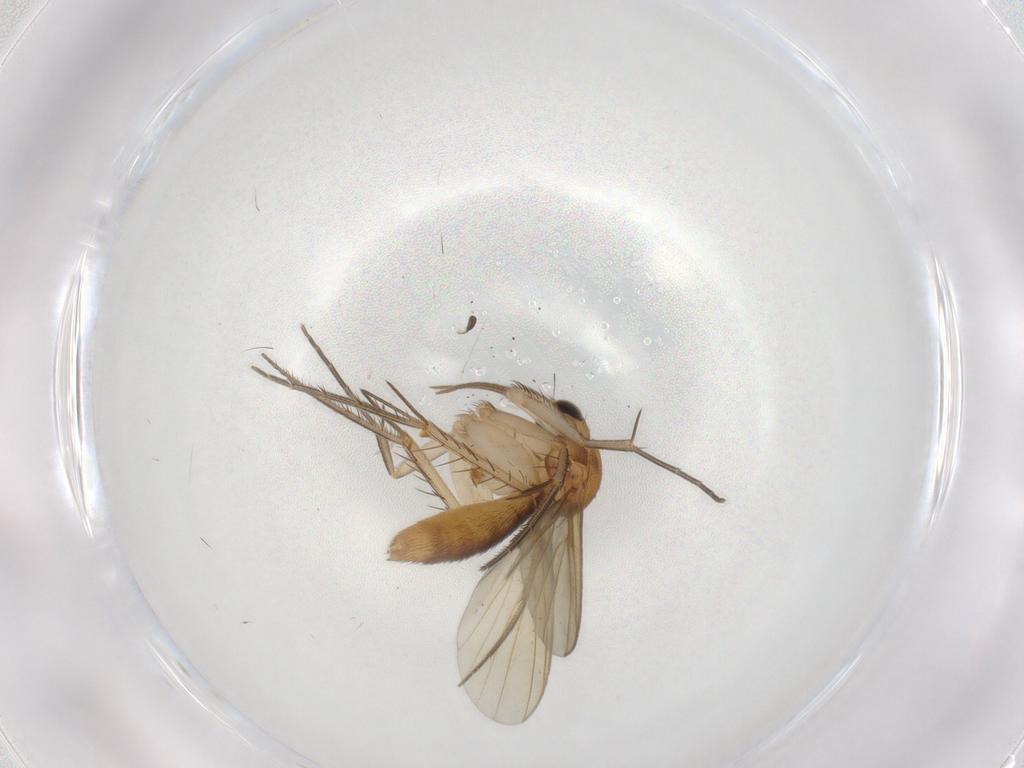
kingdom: Animalia
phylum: Arthropoda
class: Insecta
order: Diptera
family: Mycetophilidae
